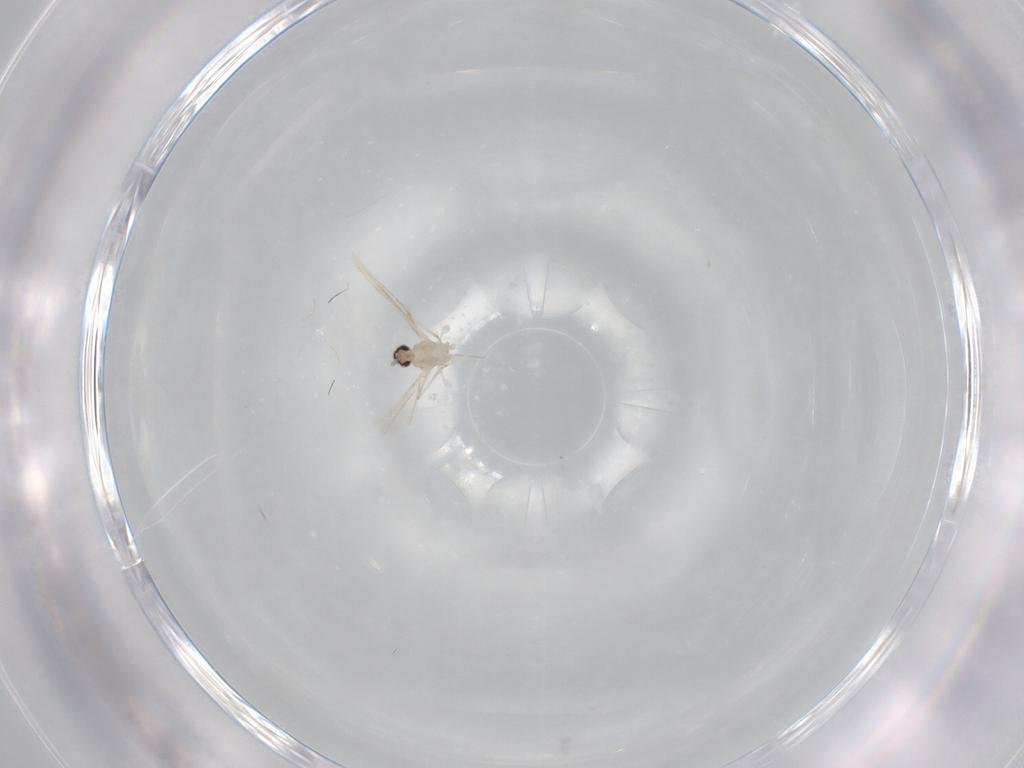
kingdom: Animalia
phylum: Arthropoda
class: Insecta
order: Diptera
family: Cecidomyiidae
